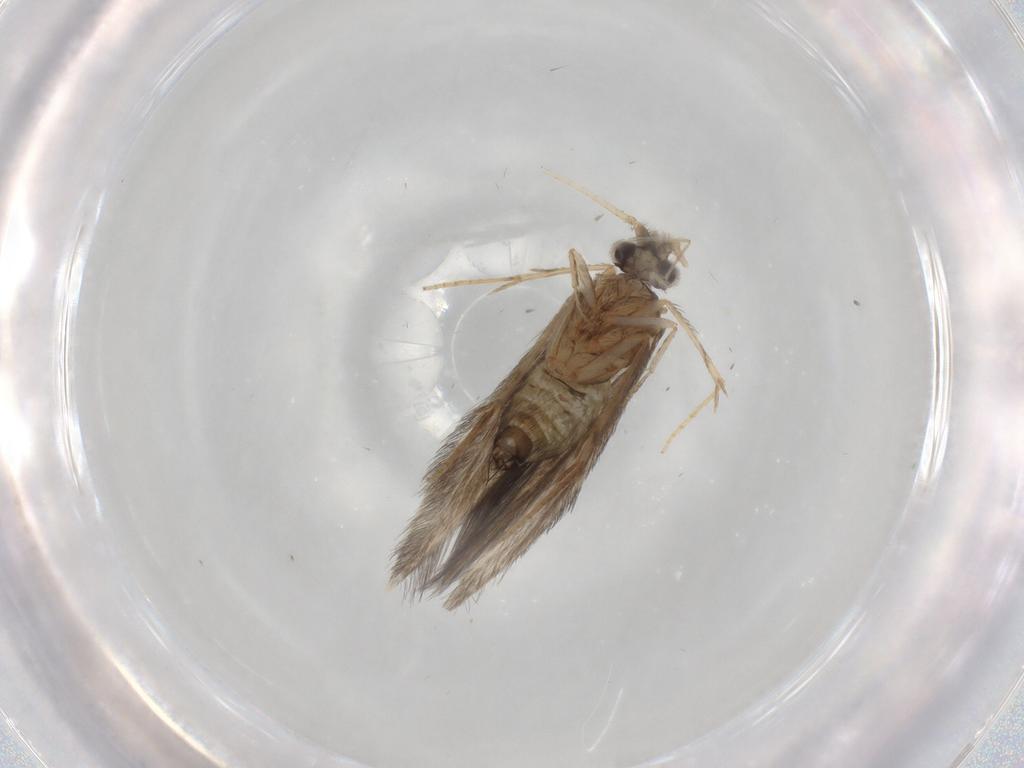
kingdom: Animalia
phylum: Arthropoda
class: Insecta
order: Trichoptera
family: Hydroptilidae
